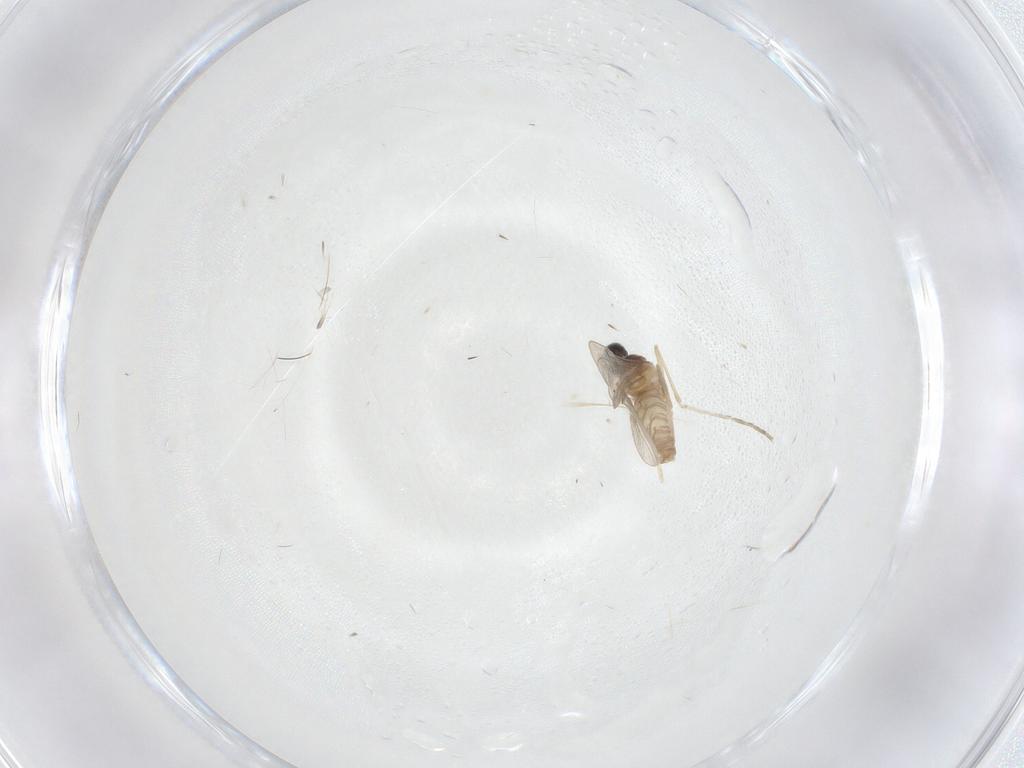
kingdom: Animalia
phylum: Arthropoda
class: Insecta
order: Diptera
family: Cecidomyiidae
